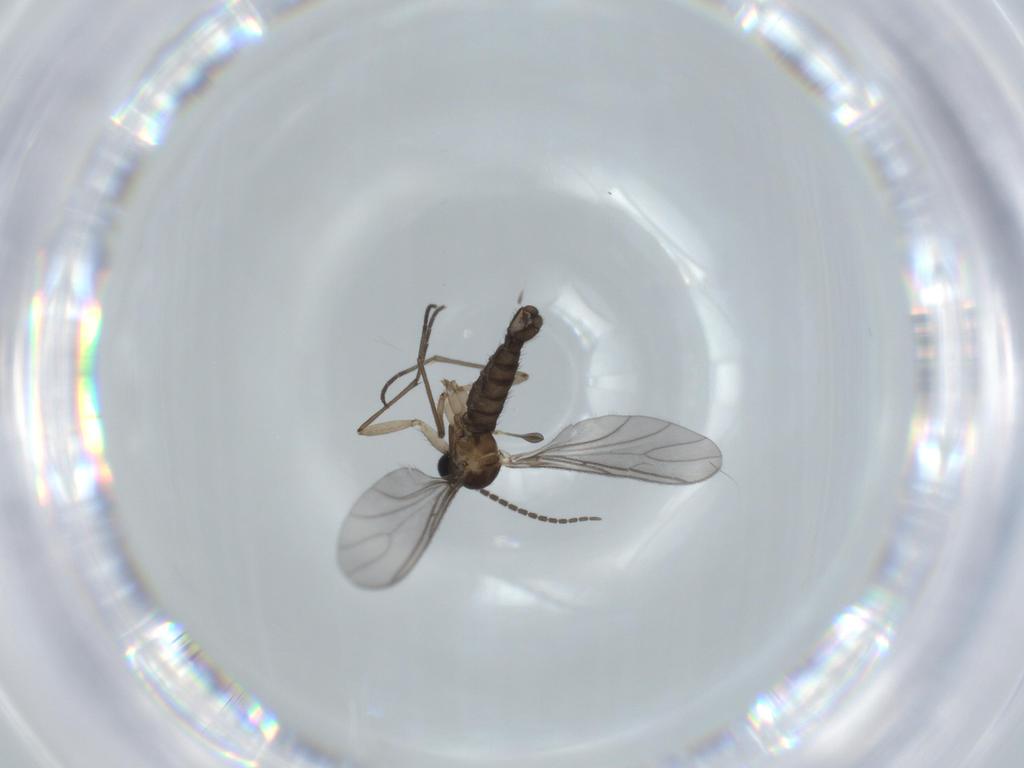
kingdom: Animalia
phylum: Arthropoda
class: Insecta
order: Diptera
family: Sciaridae
